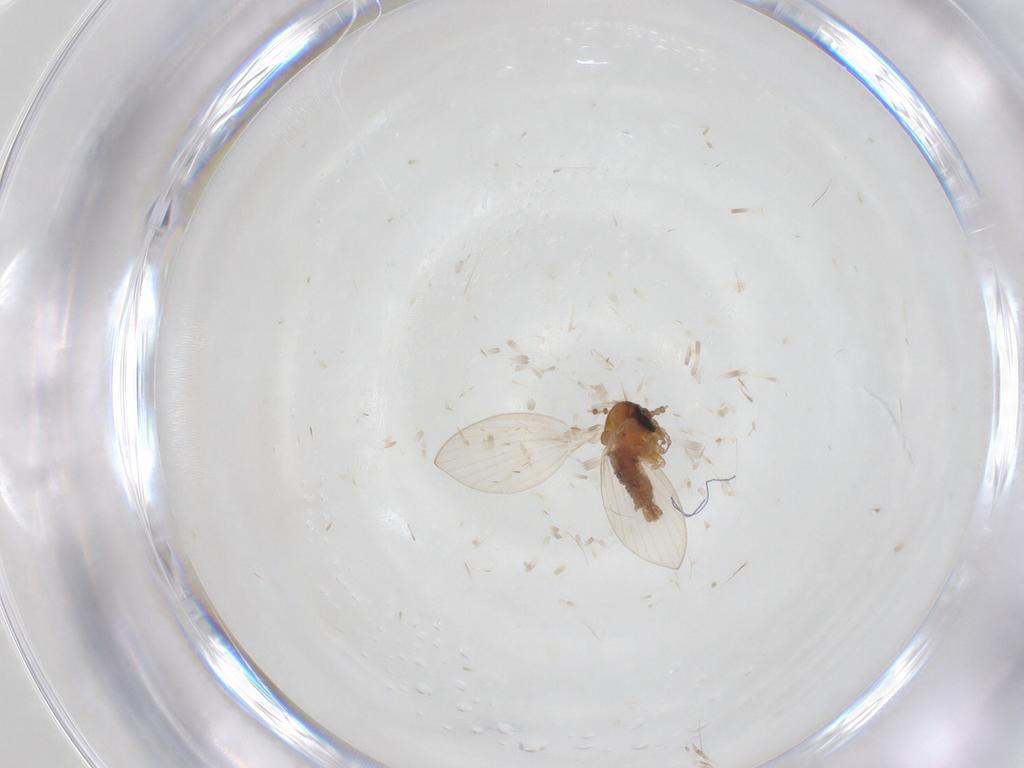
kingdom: Animalia
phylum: Arthropoda
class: Insecta
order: Diptera
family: Psychodidae
